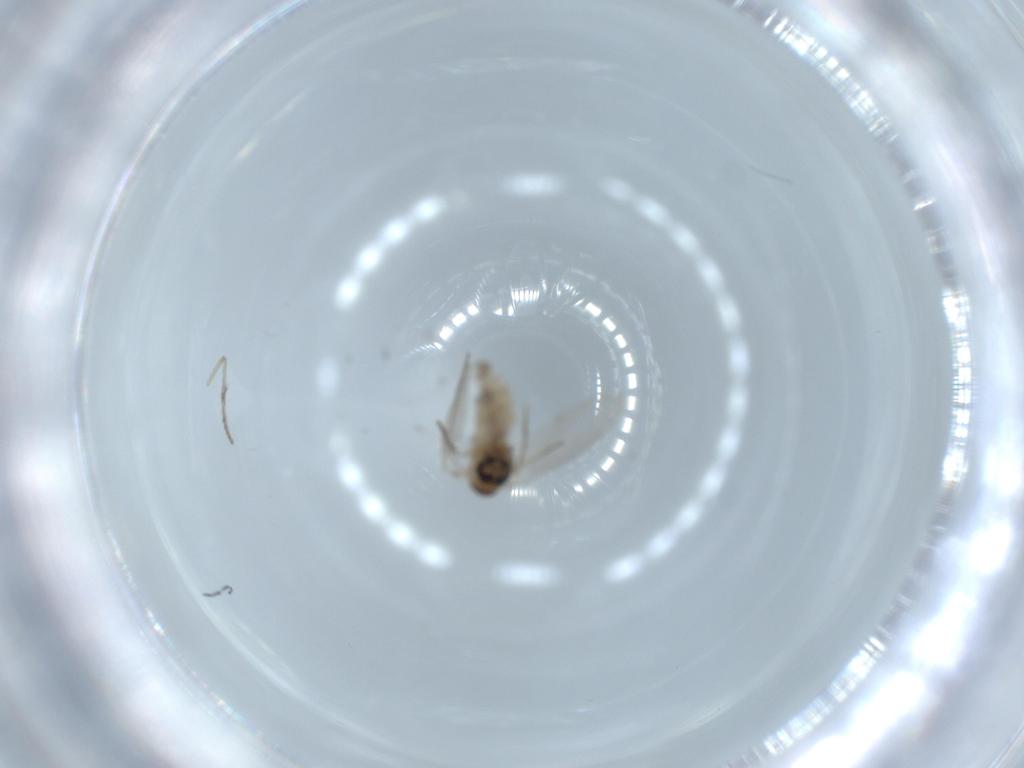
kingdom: Animalia
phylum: Arthropoda
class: Insecta
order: Diptera
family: Psychodidae
